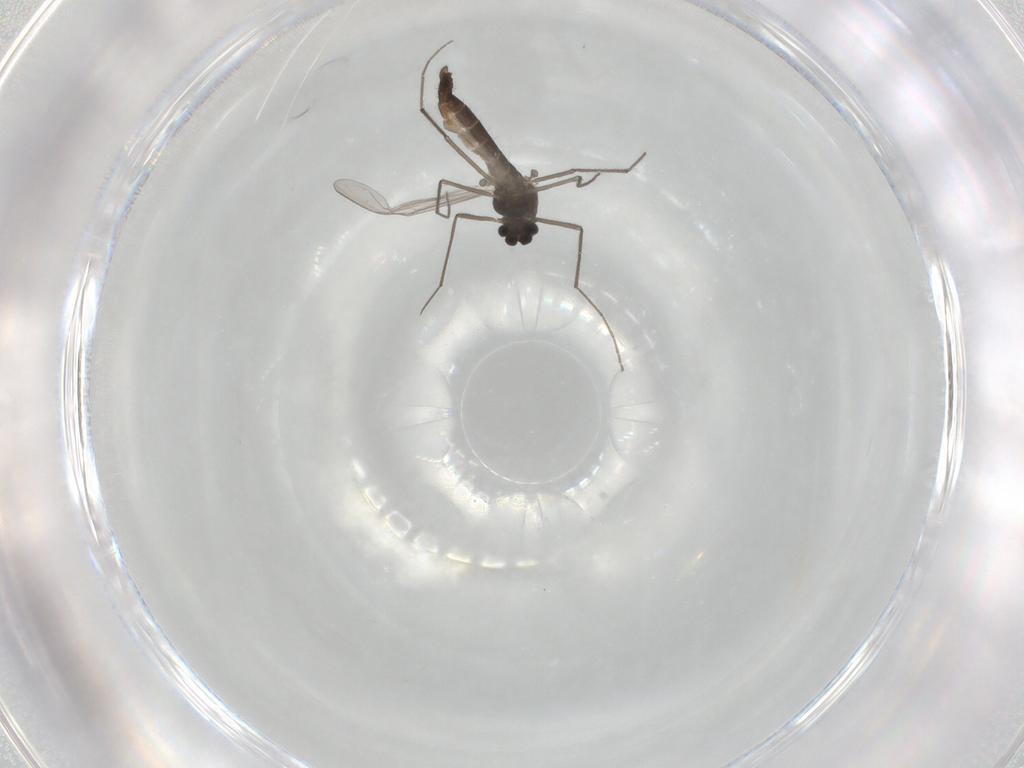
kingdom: Animalia
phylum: Arthropoda
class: Insecta
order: Diptera
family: Chironomidae
